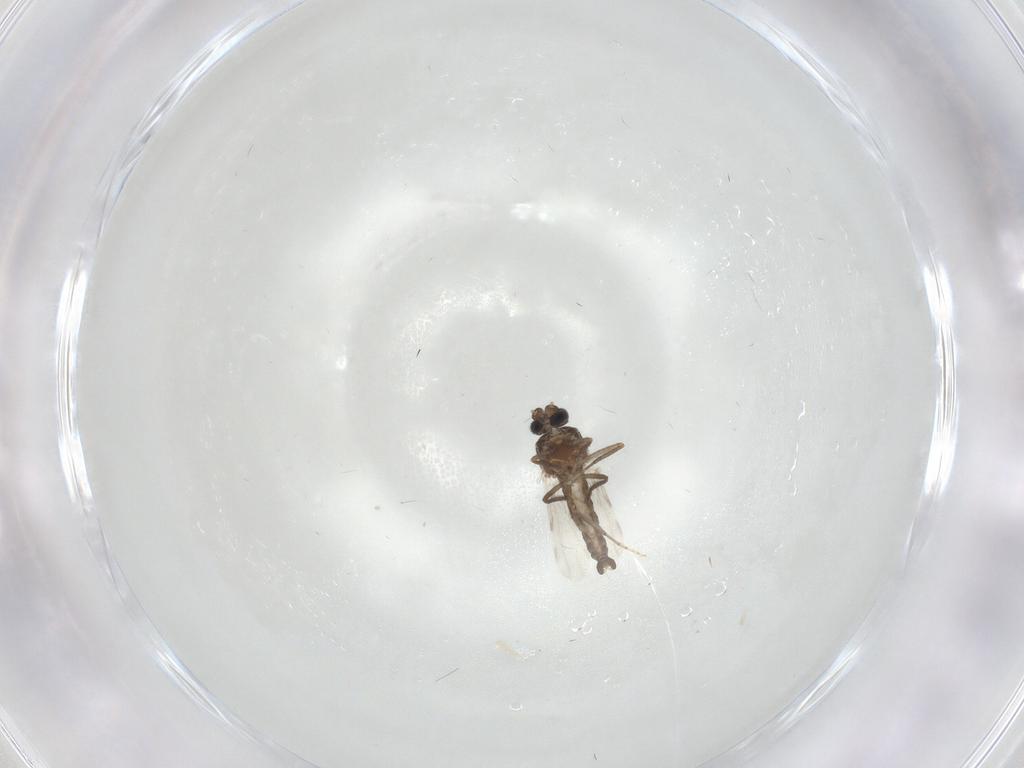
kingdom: Animalia
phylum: Arthropoda
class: Insecta
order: Diptera
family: Ceratopogonidae
